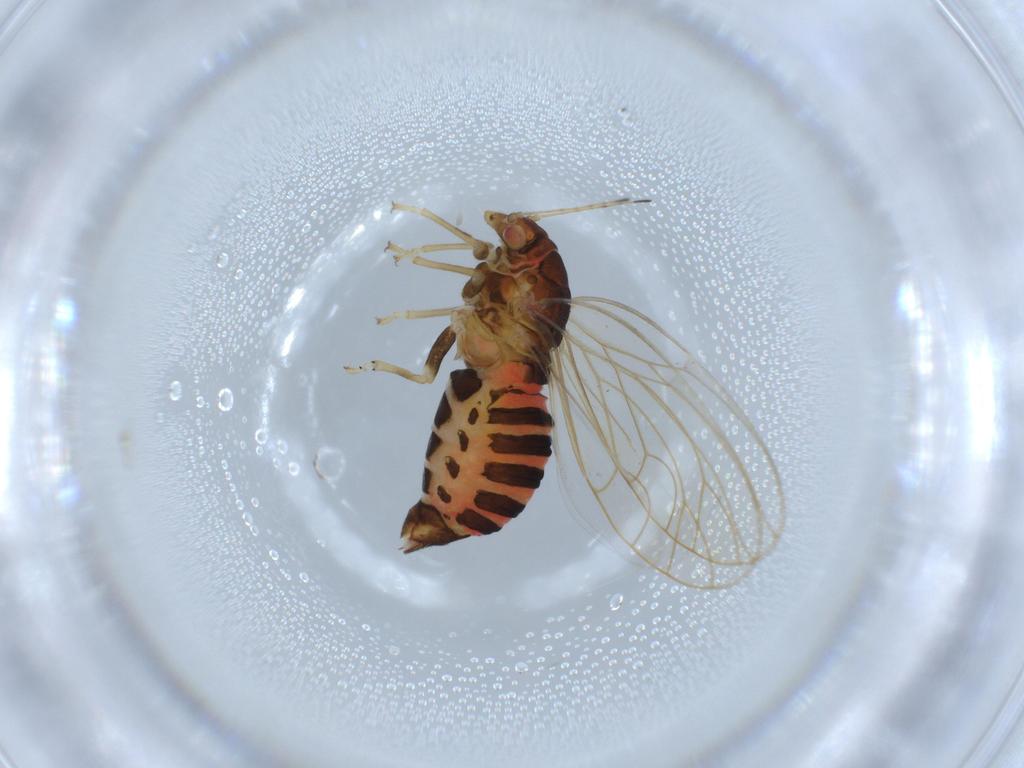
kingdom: Animalia
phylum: Arthropoda
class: Insecta
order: Hemiptera
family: Aleyrodidae
